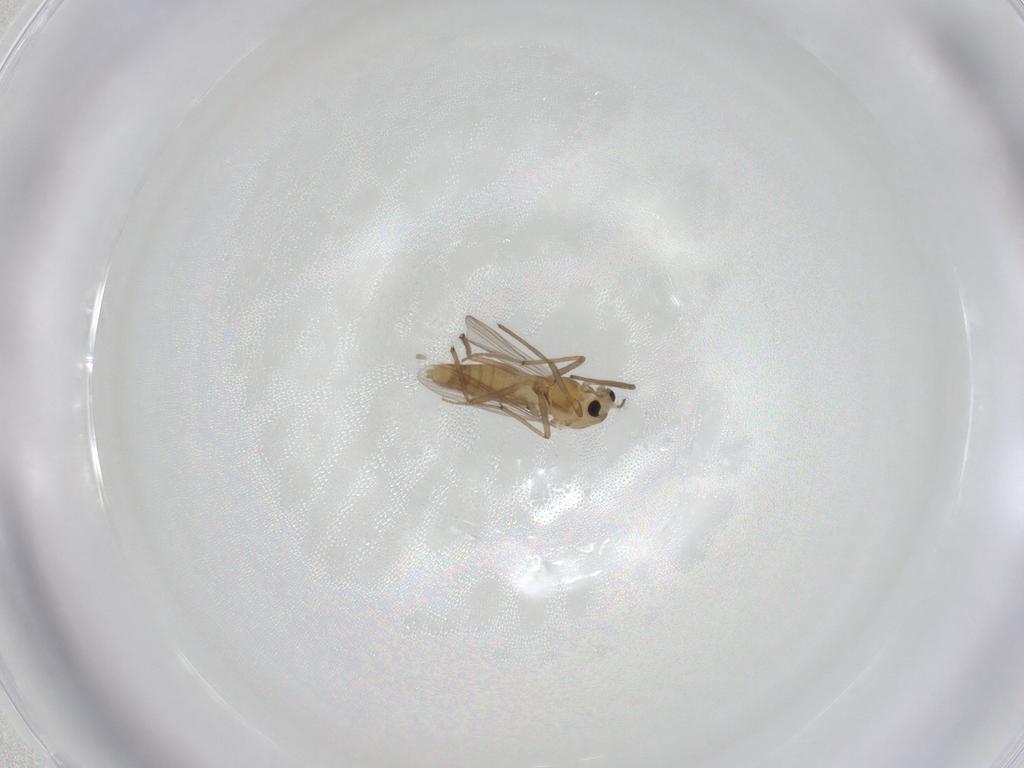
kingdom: Animalia
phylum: Arthropoda
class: Insecta
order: Diptera
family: Chironomidae
